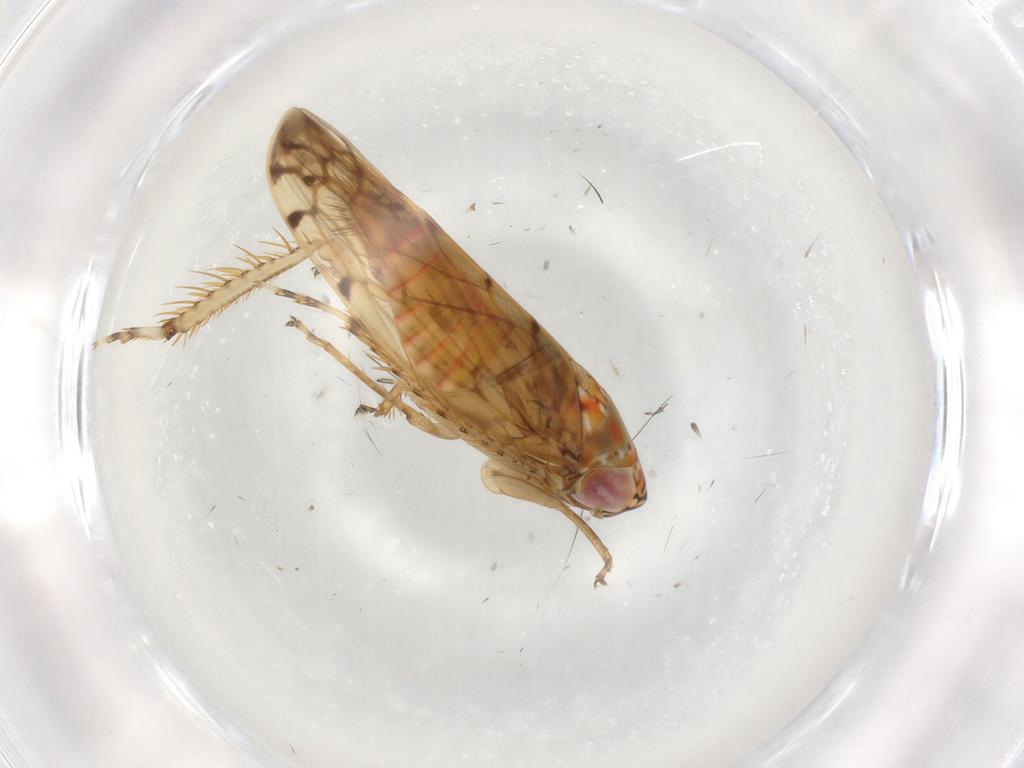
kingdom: Animalia
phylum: Arthropoda
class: Insecta
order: Hemiptera
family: Cicadellidae
